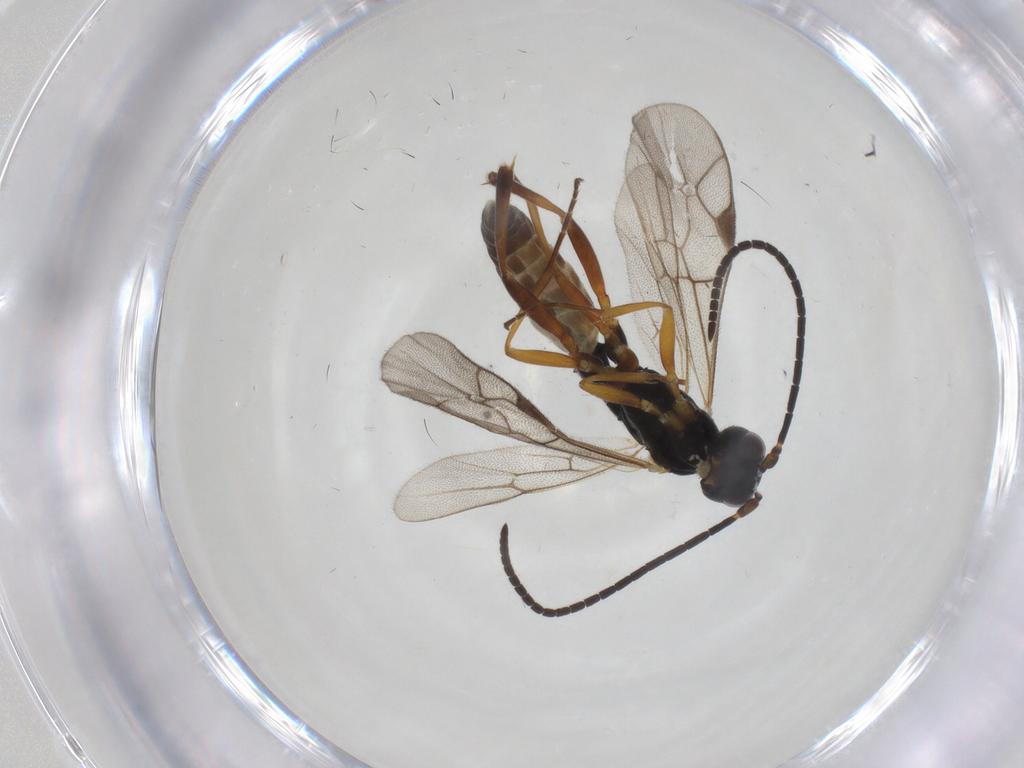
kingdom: Animalia
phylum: Arthropoda
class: Insecta
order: Hymenoptera
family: Ichneumonidae
